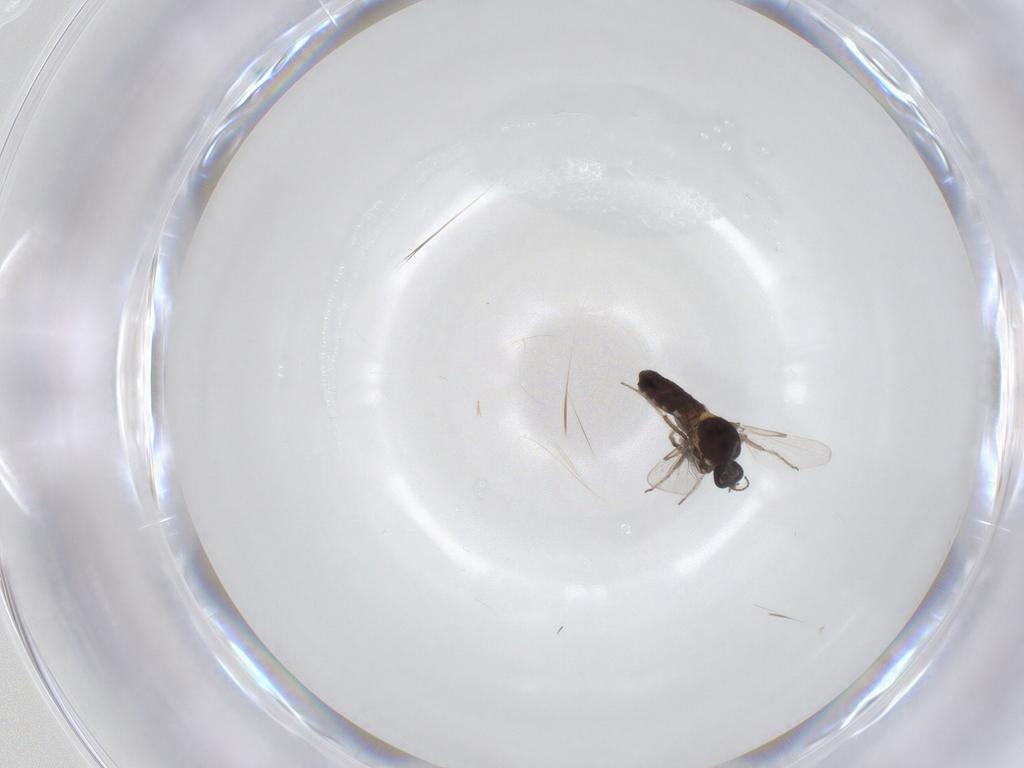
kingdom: Animalia
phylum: Arthropoda
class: Insecta
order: Diptera
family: Ceratopogonidae
